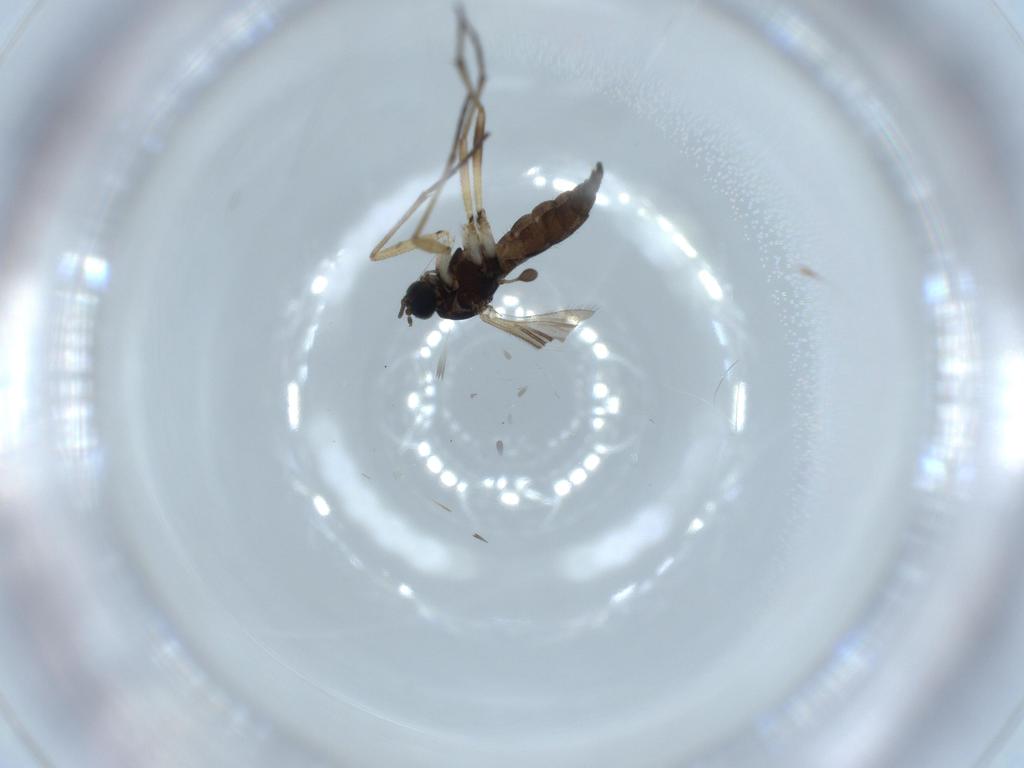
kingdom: Animalia
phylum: Arthropoda
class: Insecta
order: Diptera
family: Sciaridae
